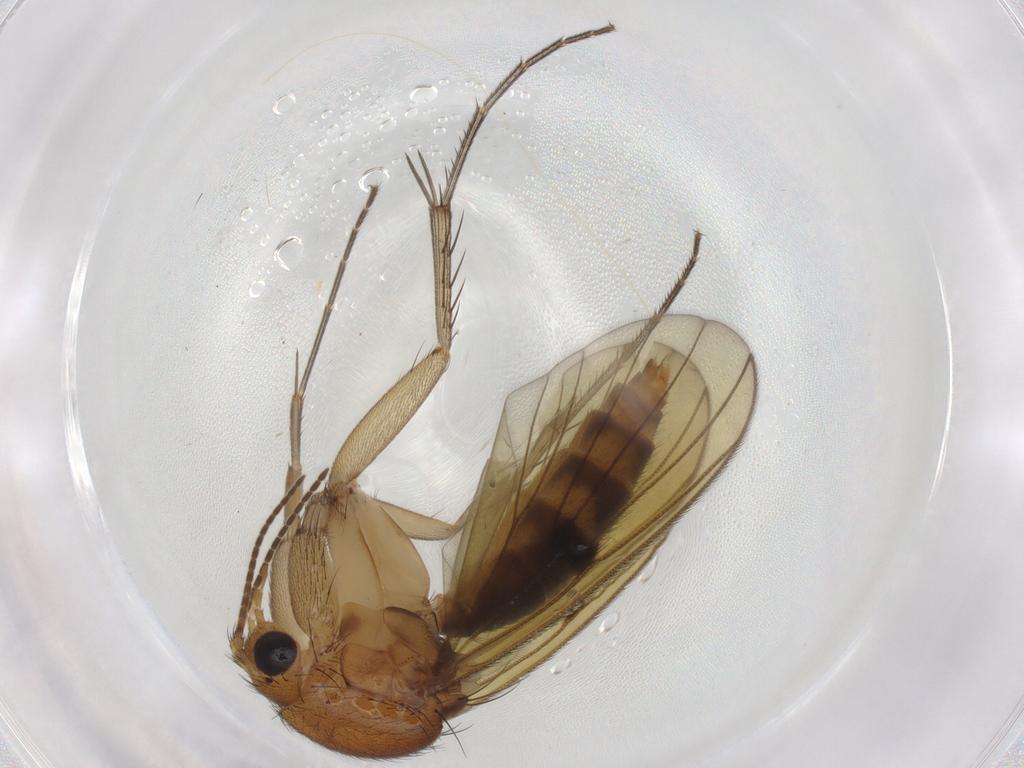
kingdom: Animalia
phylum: Arthropoda
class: Insecta
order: Diptera
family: Mycetophilidae
